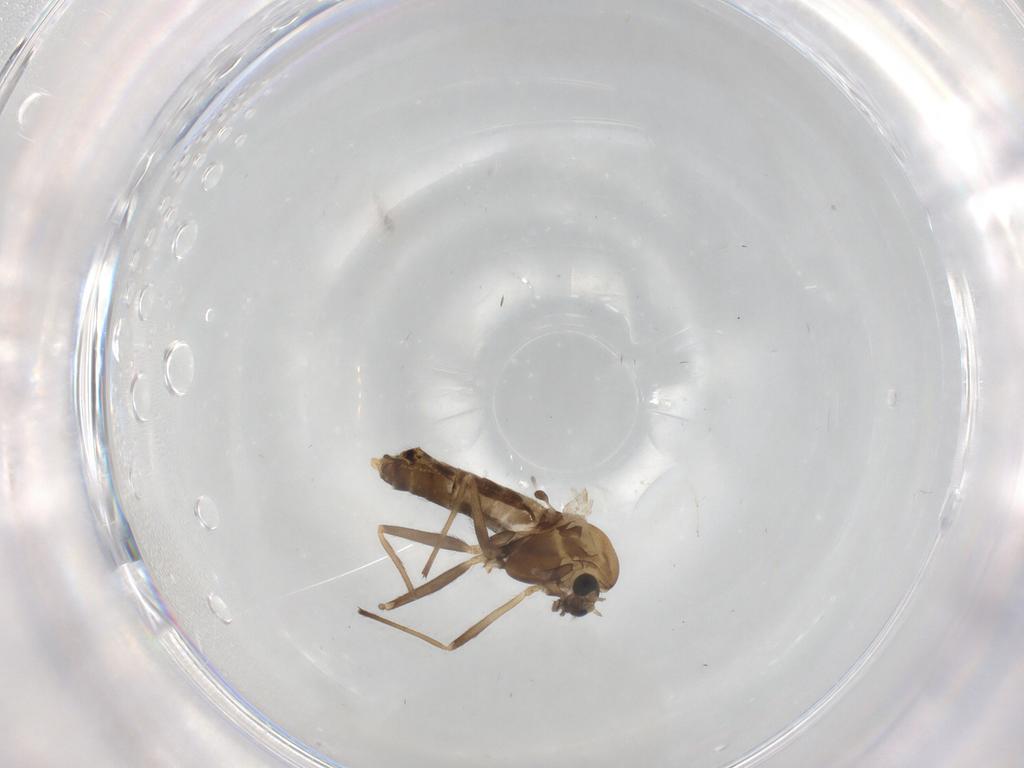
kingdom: Animalia
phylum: Arthropoda
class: Insecta
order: Diptera
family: Chironomidae
